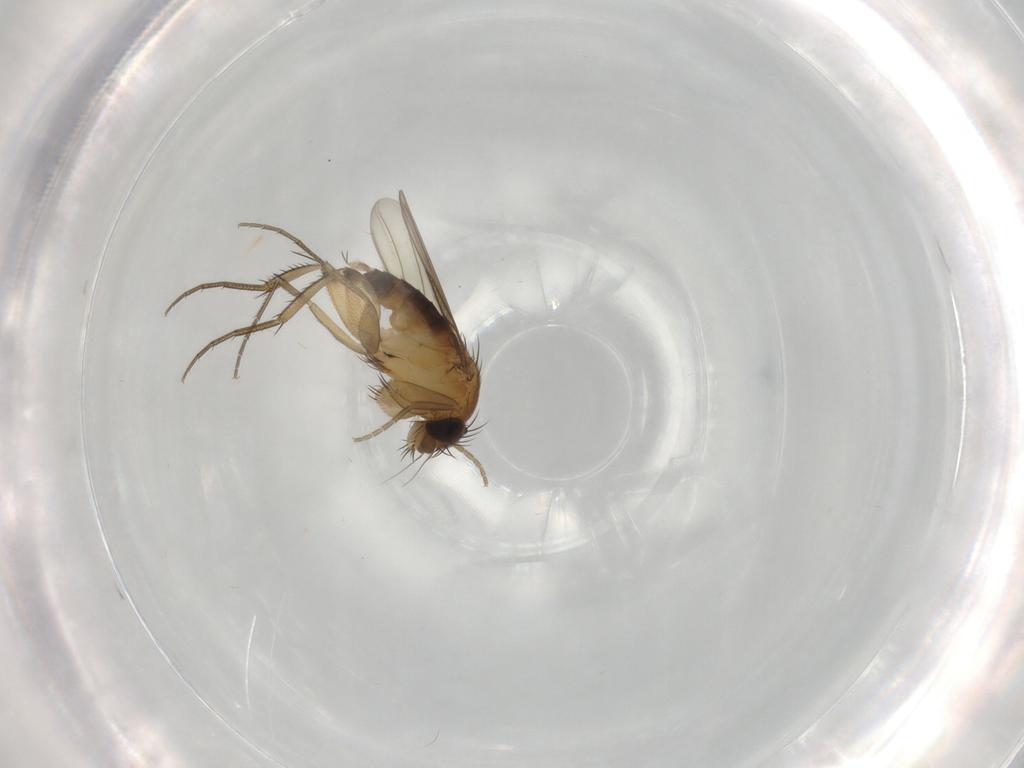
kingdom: Animalia
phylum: Arthropoda
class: Insecta
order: Diptera
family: Phoridae
